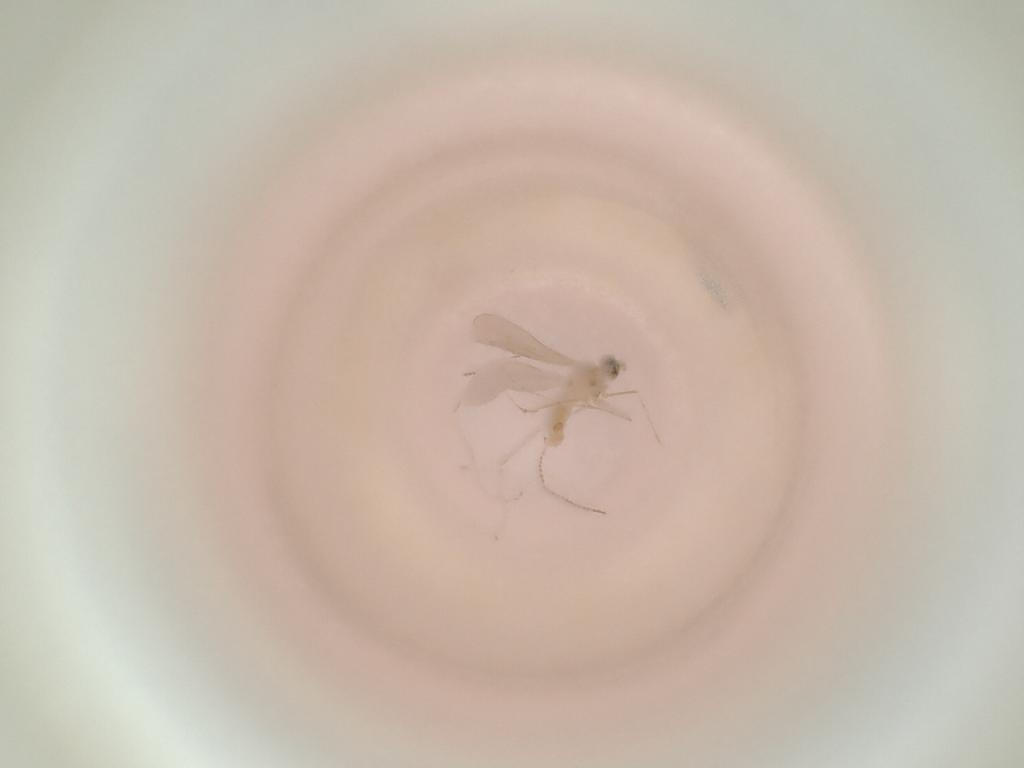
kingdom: Animalia
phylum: Arthropoda
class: Insecta
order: Diptera
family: Cecidomyiidae
